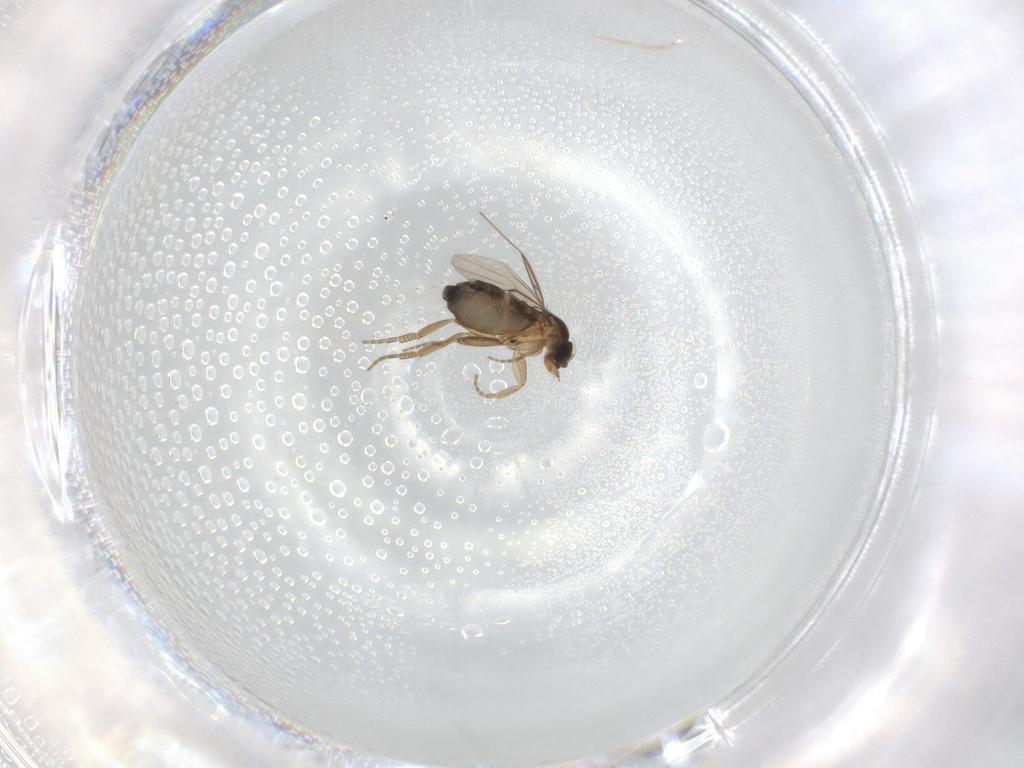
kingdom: Animalia
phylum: Arthropoda
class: Insecta
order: Diptera
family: Phoridae
